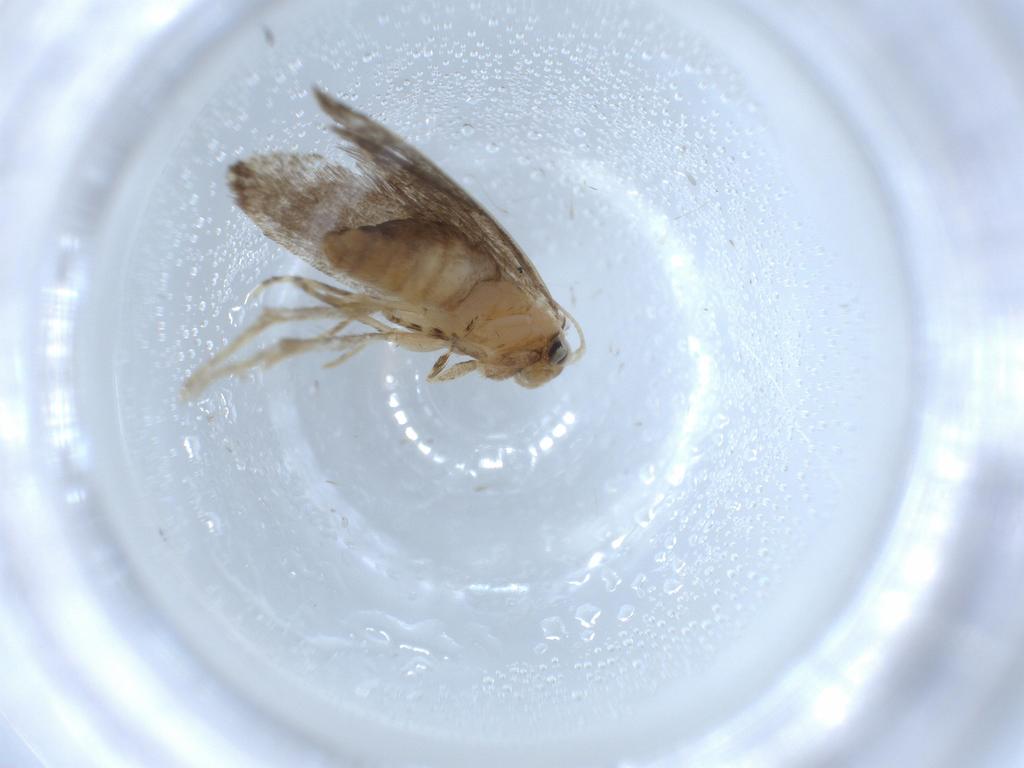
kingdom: Animalia
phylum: Arthropoda
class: Insecta
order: Lepidoptera
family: Tineidae
